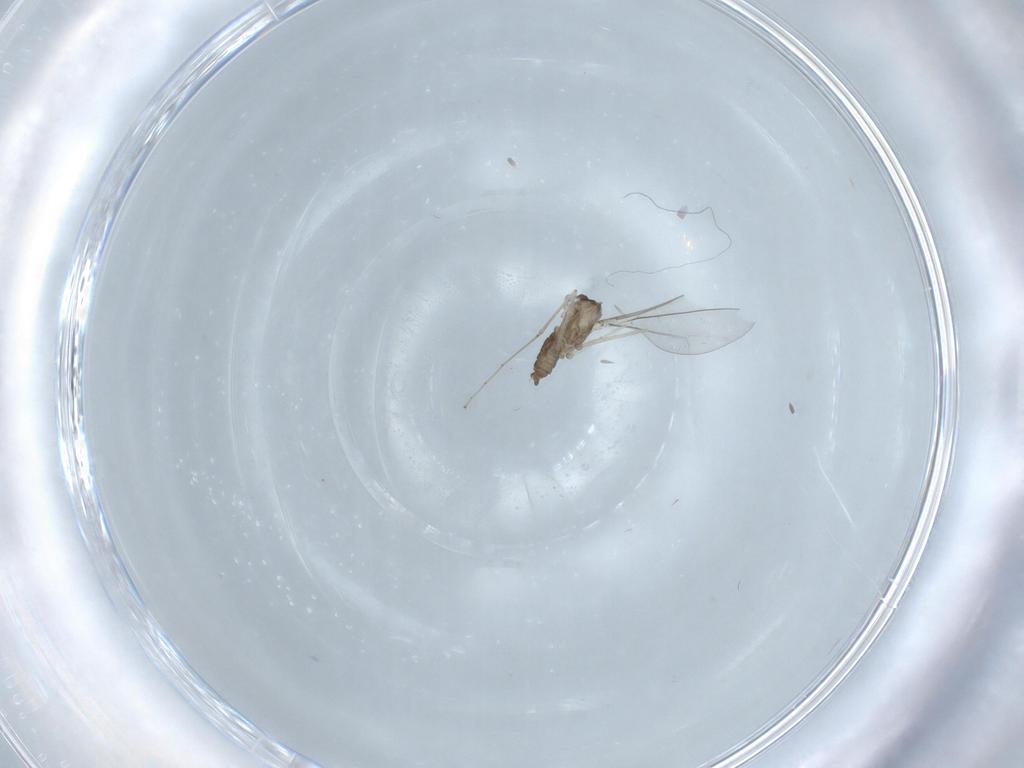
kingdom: Animalia
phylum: Arthropoda
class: Insecta
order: Diptera
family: Cecidomyiidae
